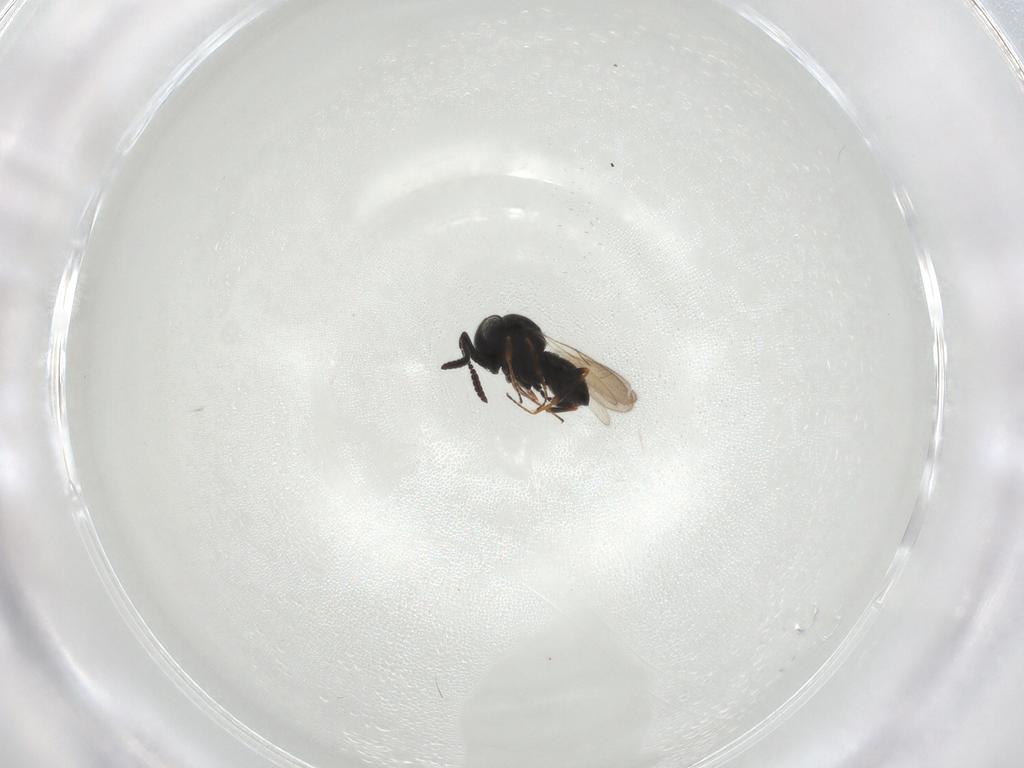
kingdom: Animalia
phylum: Arthropoda
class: Insecta
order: Hymenoptera
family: Scelionidae
